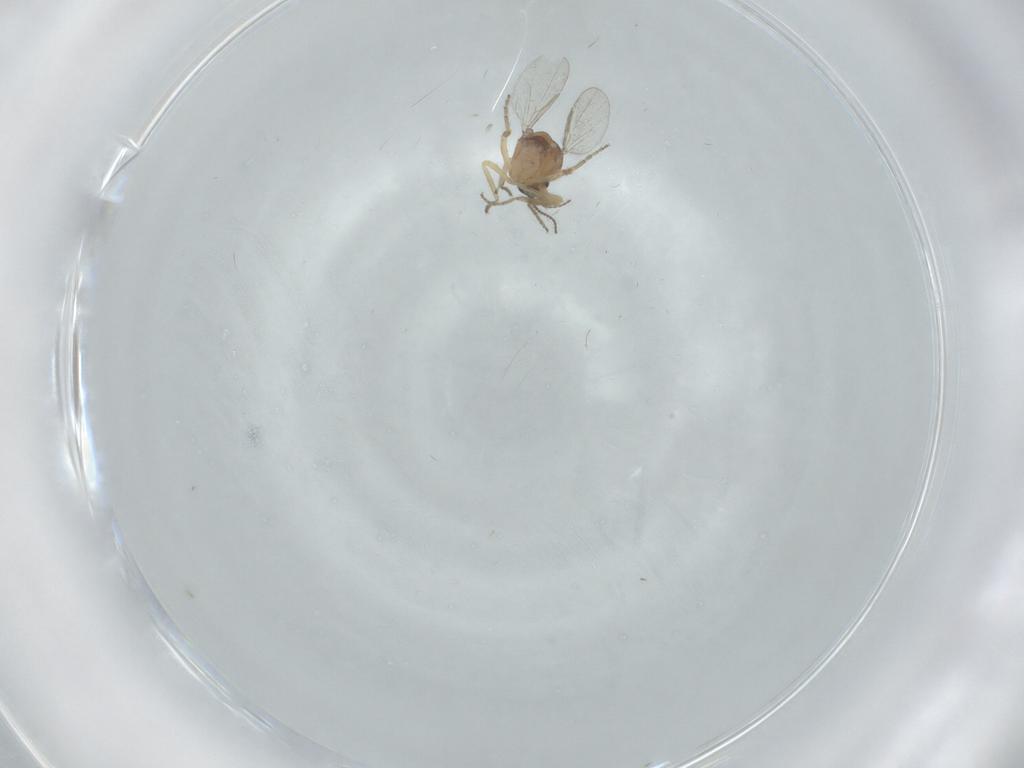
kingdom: Animalia
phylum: Arthropoda
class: Insecta
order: Diptera
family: Ceratopogonidae
